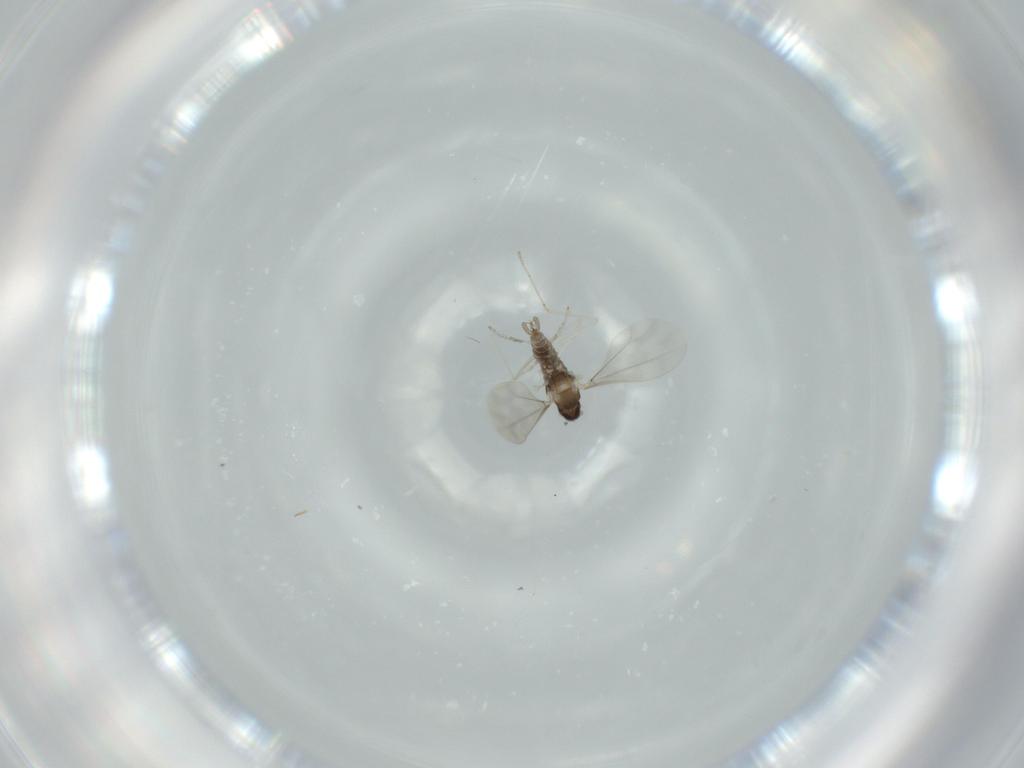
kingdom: Animalia
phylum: Arthropoda
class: Insecta
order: Diptera
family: Cecidomyiidae
